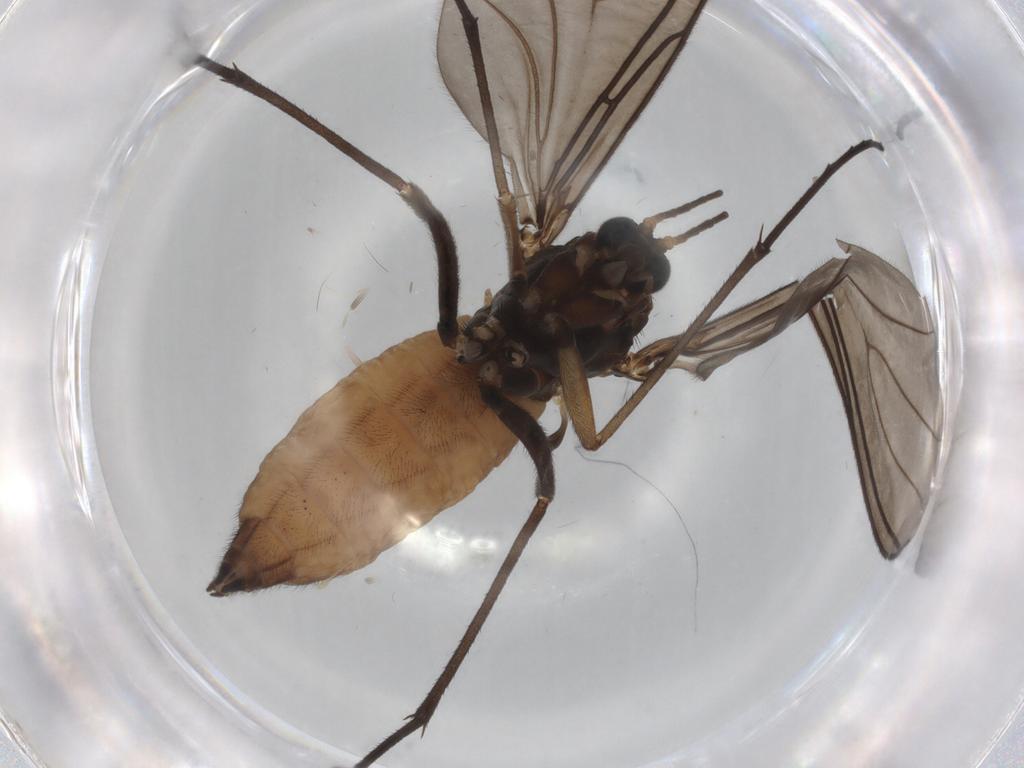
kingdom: Animalia
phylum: Arthropoda
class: Insecta
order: Diptera
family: Sciaridae
